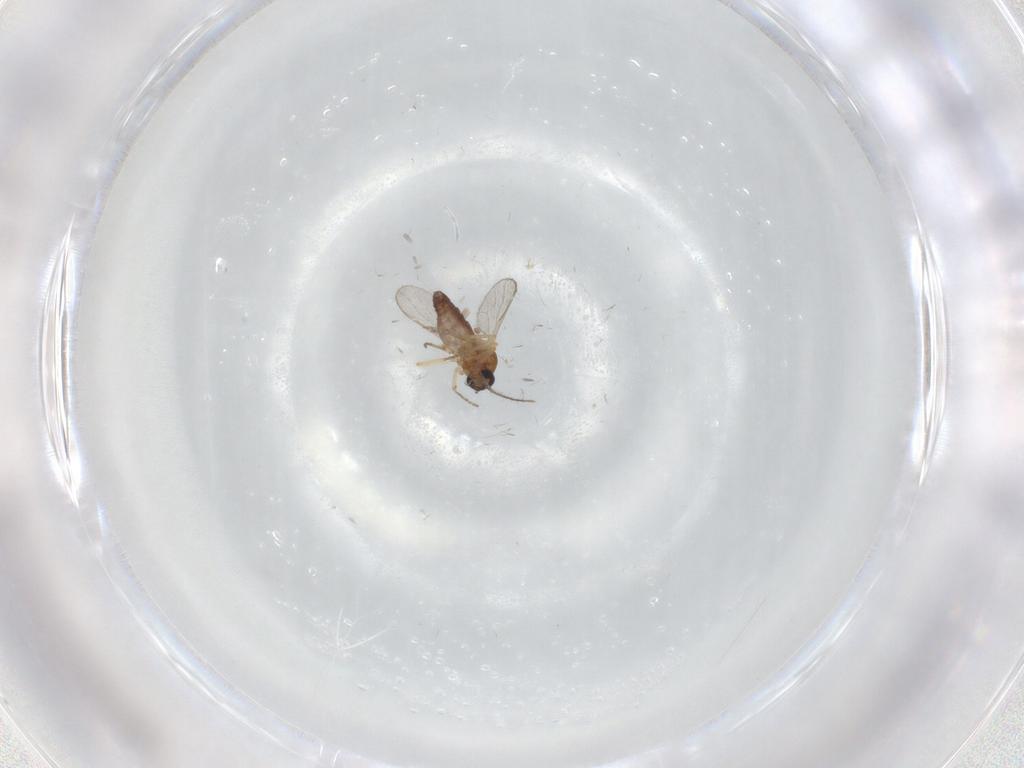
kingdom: Animalia
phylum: Arthropoda
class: Insecta
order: Diptera
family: Ceratopogonidae
